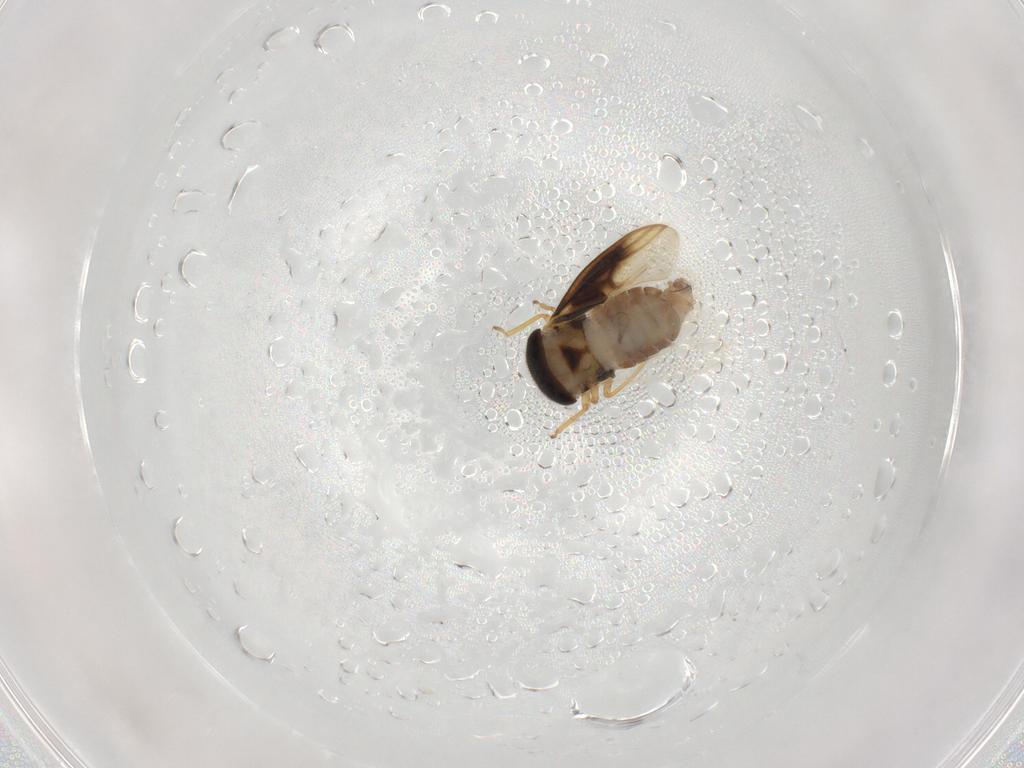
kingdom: Animalia
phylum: Arthropoda
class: Insecta
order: Hemiptera
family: Schizopteridae
